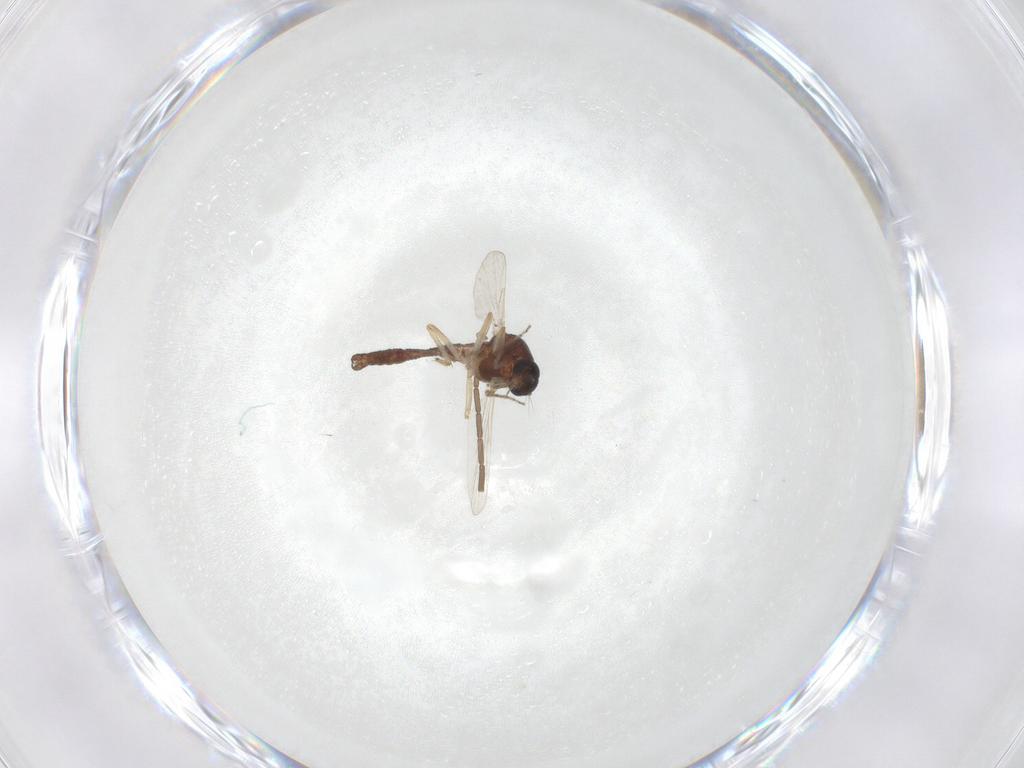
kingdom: Animalia
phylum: Arthropoda
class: Insecta
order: Diptera
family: Ceratopogonidae
